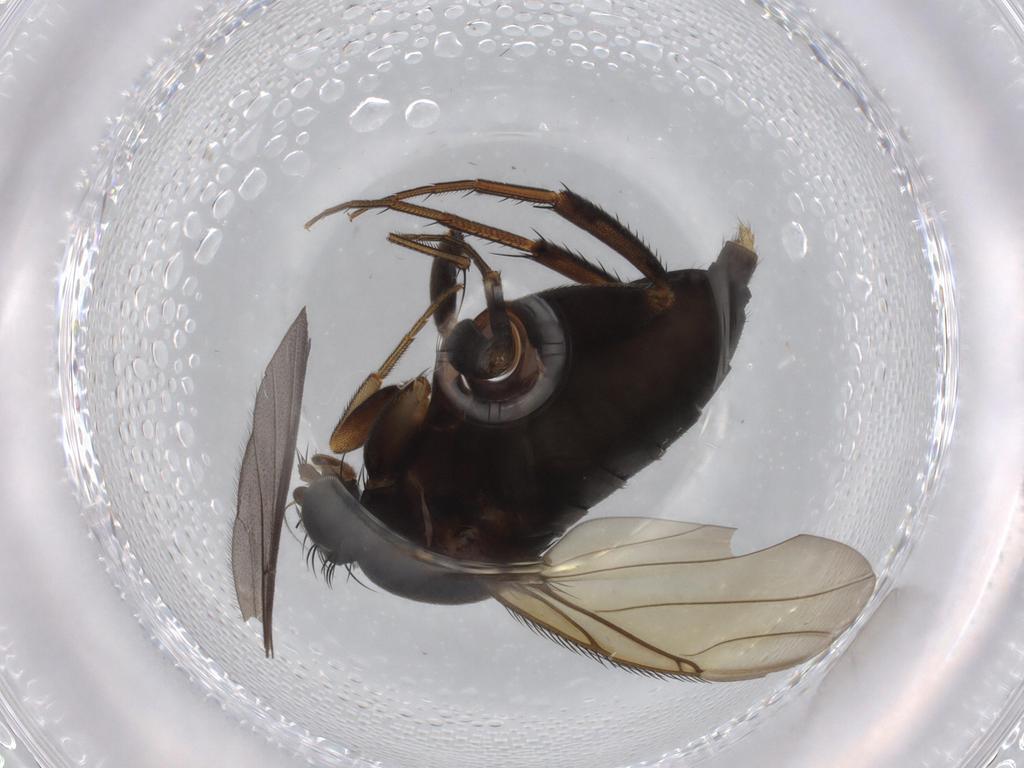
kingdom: Animalia
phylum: Arthropoda
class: Insecta
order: Diptera
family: Phoridae
